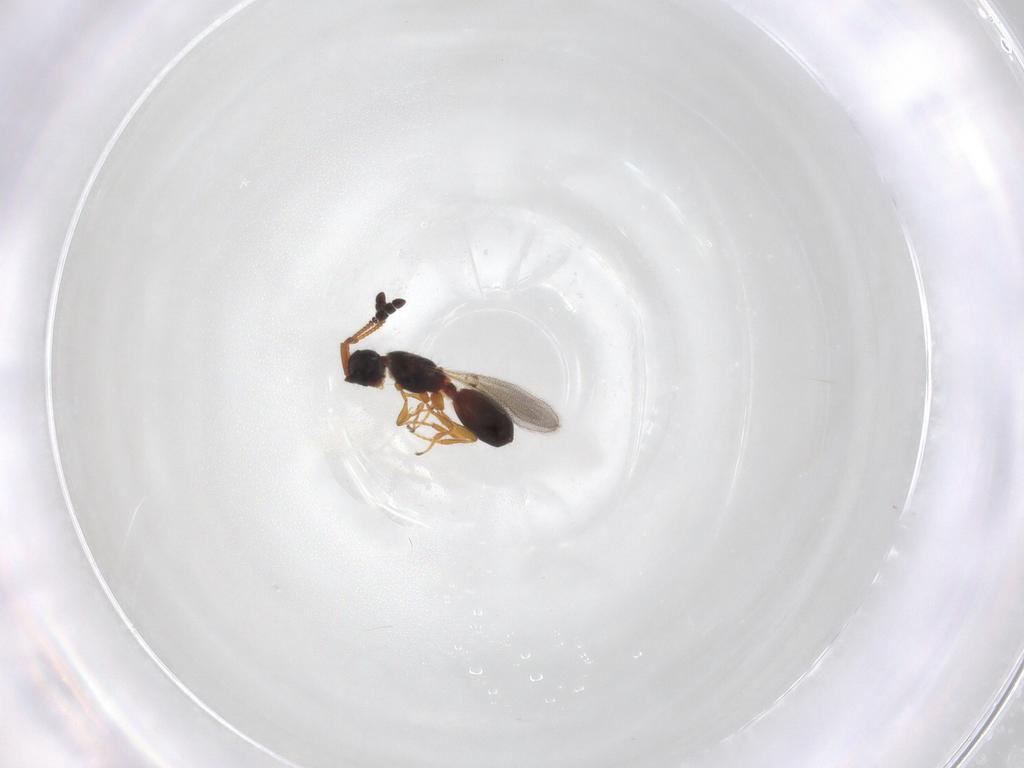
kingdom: Animalia
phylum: Arthropoda
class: Insecta
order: Hymenoptera
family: Diapriidae
